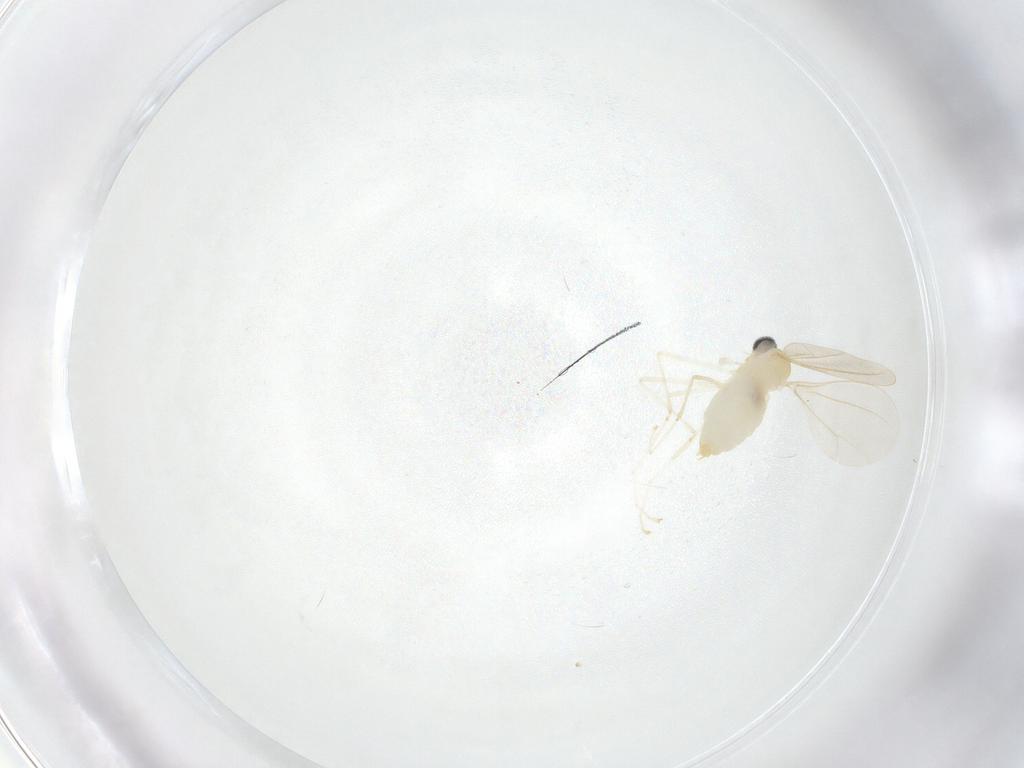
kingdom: Animalia
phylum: Arthropoda
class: Insecta
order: Diptera
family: Cecidomyiidae
